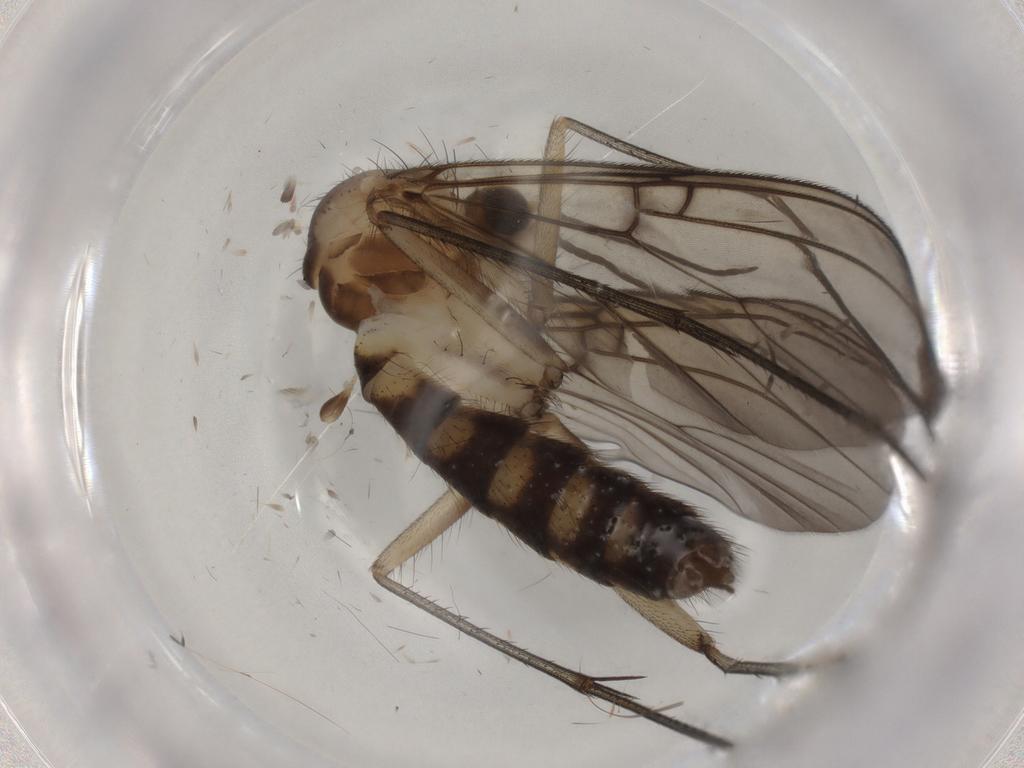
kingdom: Animalia
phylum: Arthropoda
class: Insecta
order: Diptera
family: Mycetophilidae
